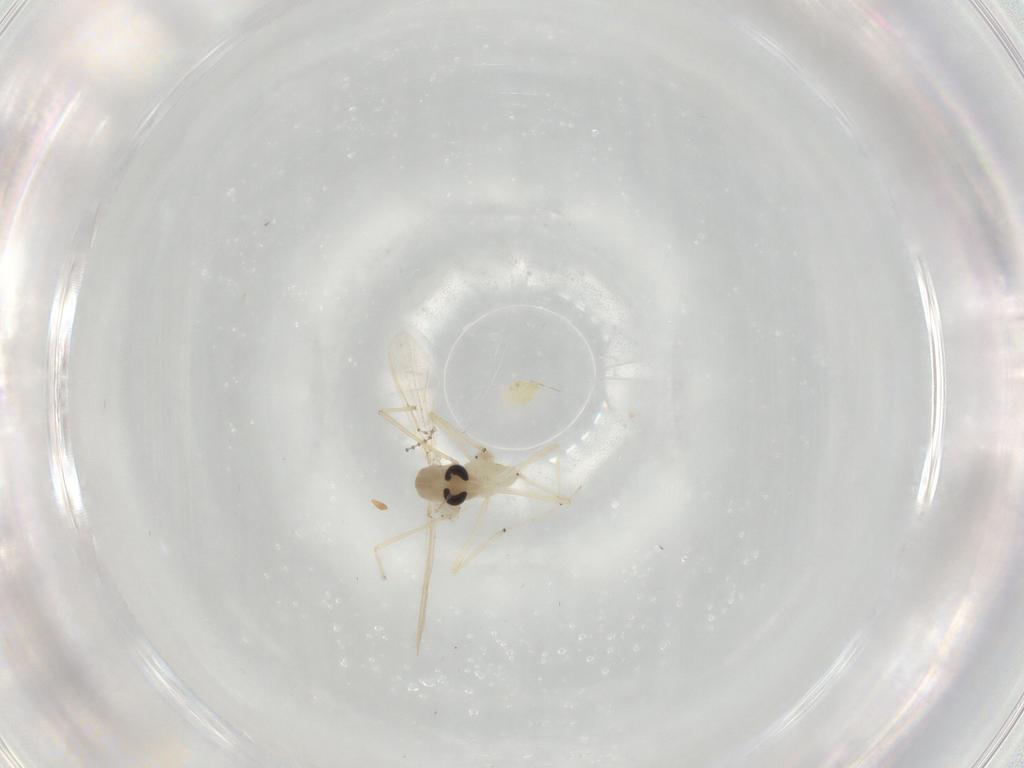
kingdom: Animalia
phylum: Arthropoda
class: Insecta
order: Diptera
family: Chironomidae
